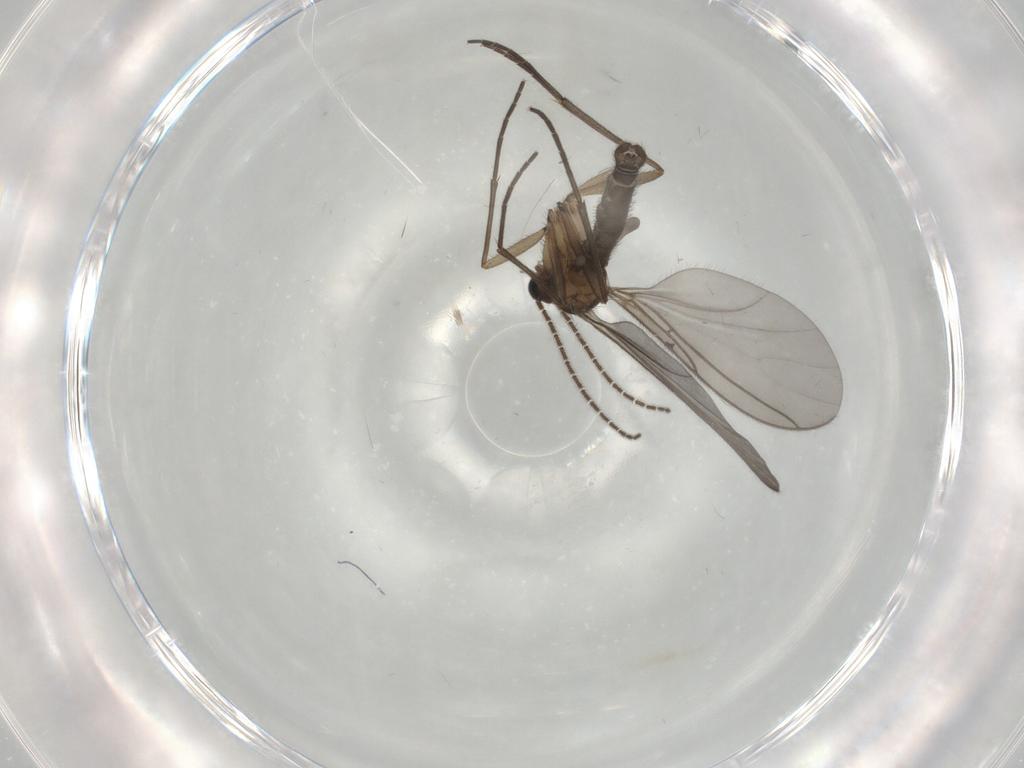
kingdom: Animalia
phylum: Arthropoda
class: Insecta
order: Diptera
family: Sciaridae
